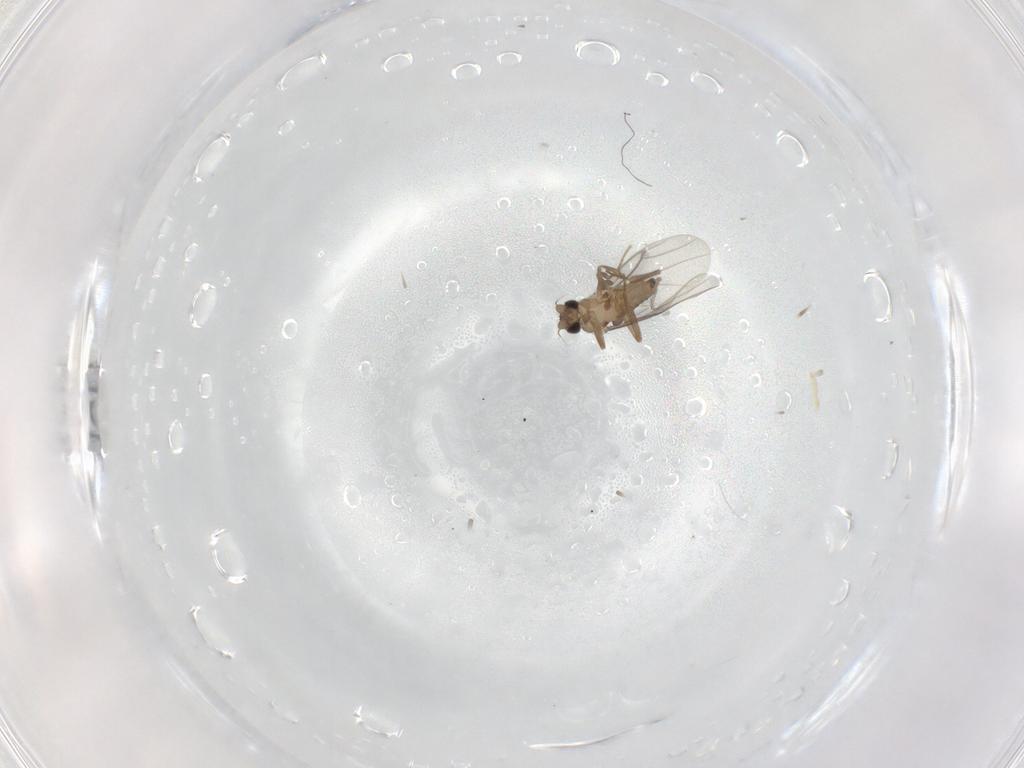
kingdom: Animalia
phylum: Arthropoda
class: Insecta
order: Diptera
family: Cecidomyiidae
